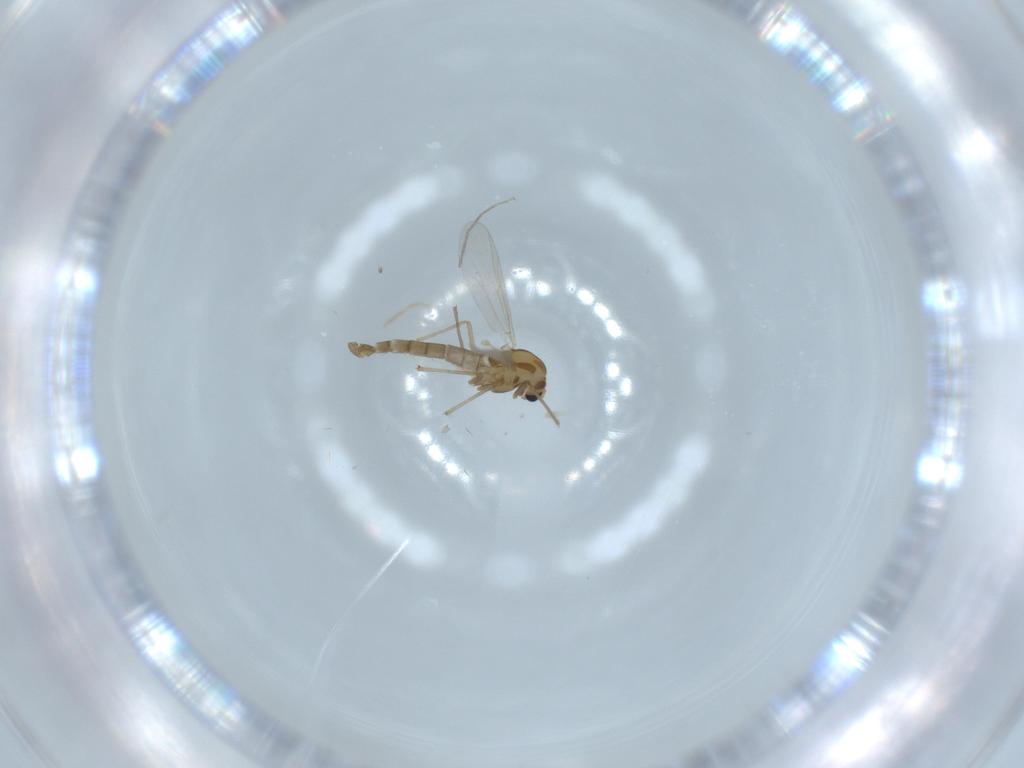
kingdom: Animalia
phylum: Arthropoda
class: Insecta
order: Diptera
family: Chironomidae
